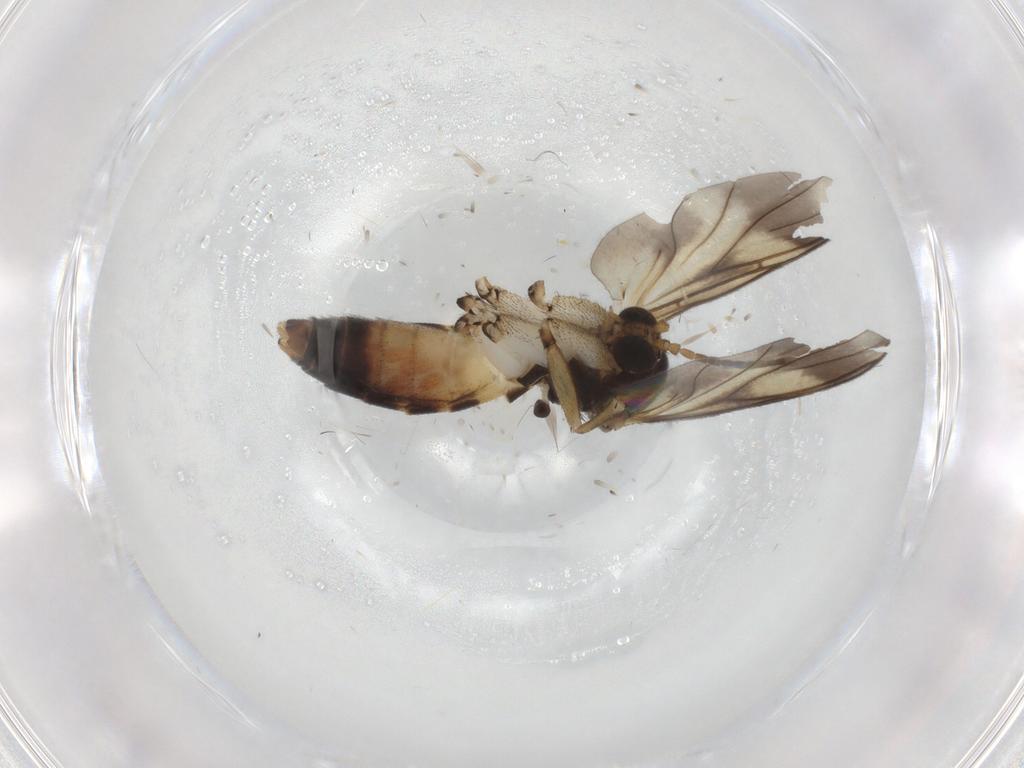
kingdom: Animalia
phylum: Arthropoda
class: Insecta
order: Diptera
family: Mycetophilidae
